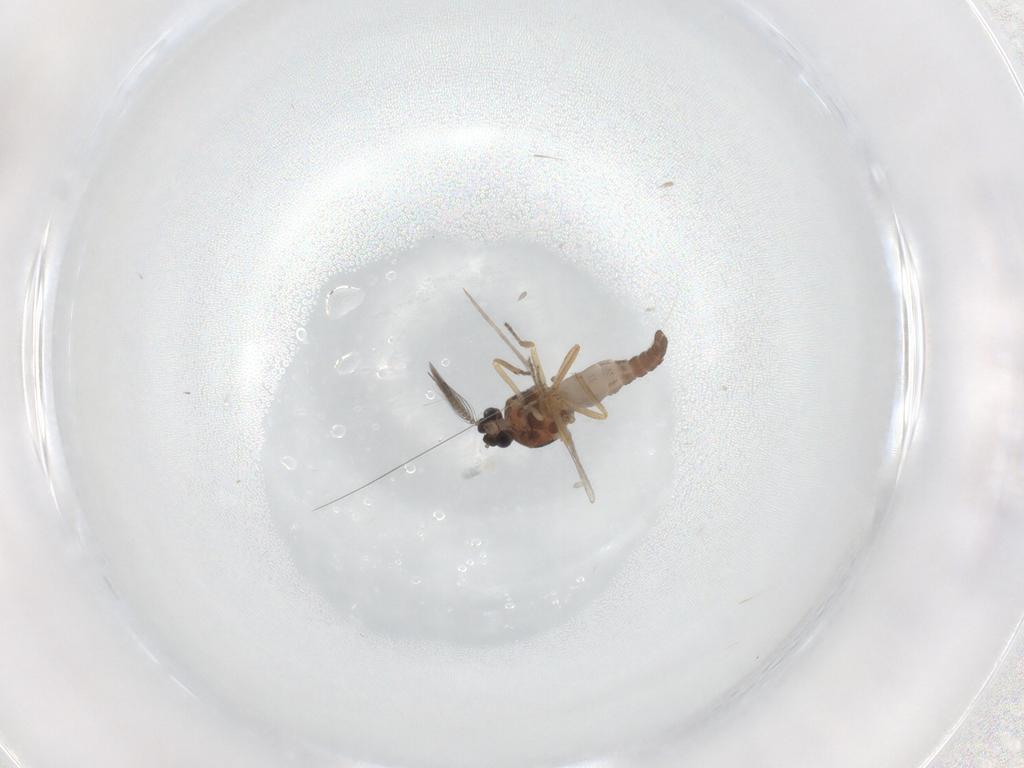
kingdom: Animalia
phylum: Arthropoda
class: Insecta
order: Diptera
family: Ceratopogonidae
